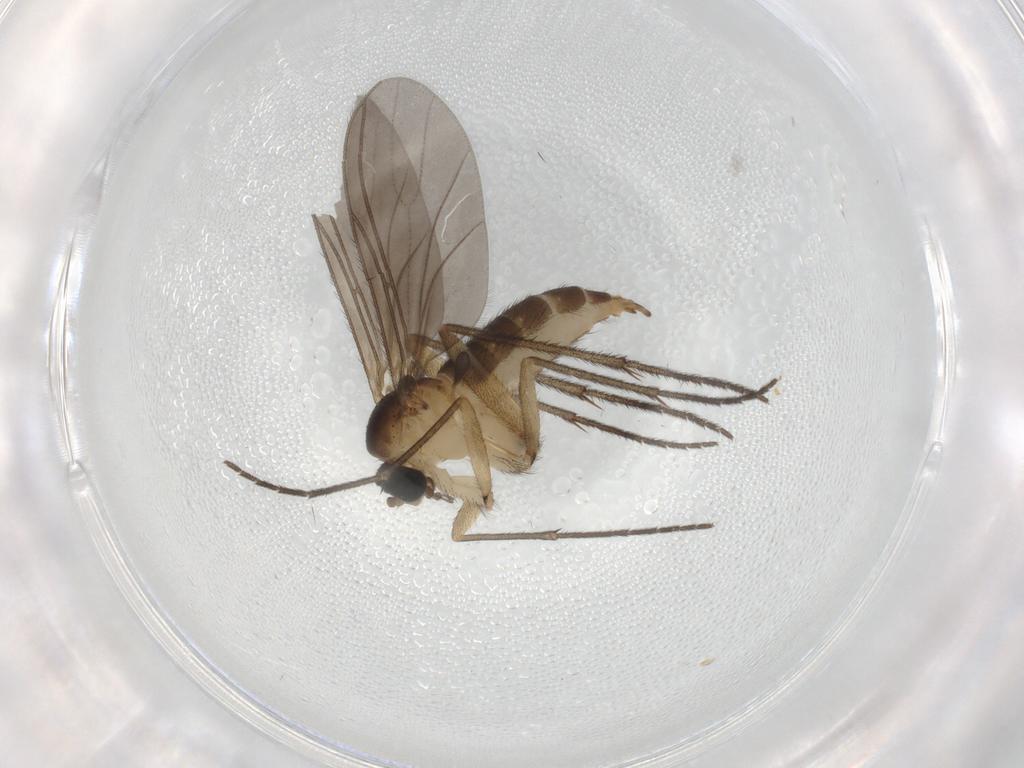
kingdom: Animalia
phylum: Arthropoda
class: Insecta
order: Diptera
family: Sciaridae
